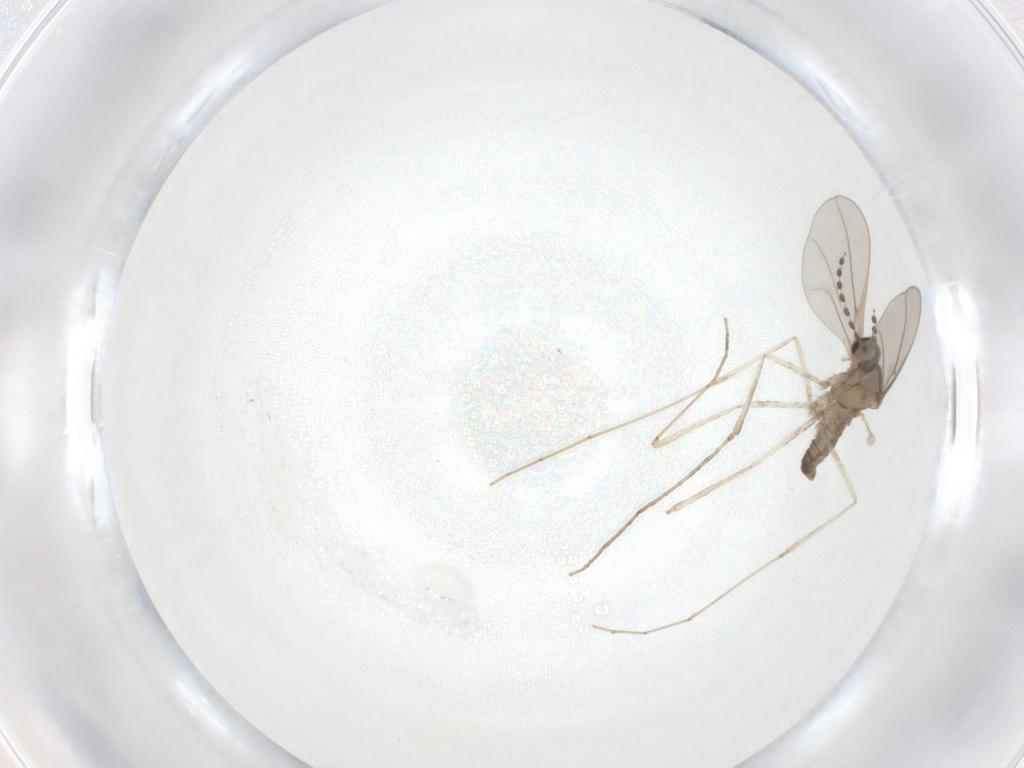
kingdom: Animalia
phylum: Arthropoda
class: Insecta
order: Diptera
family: Cecidomyiidae
